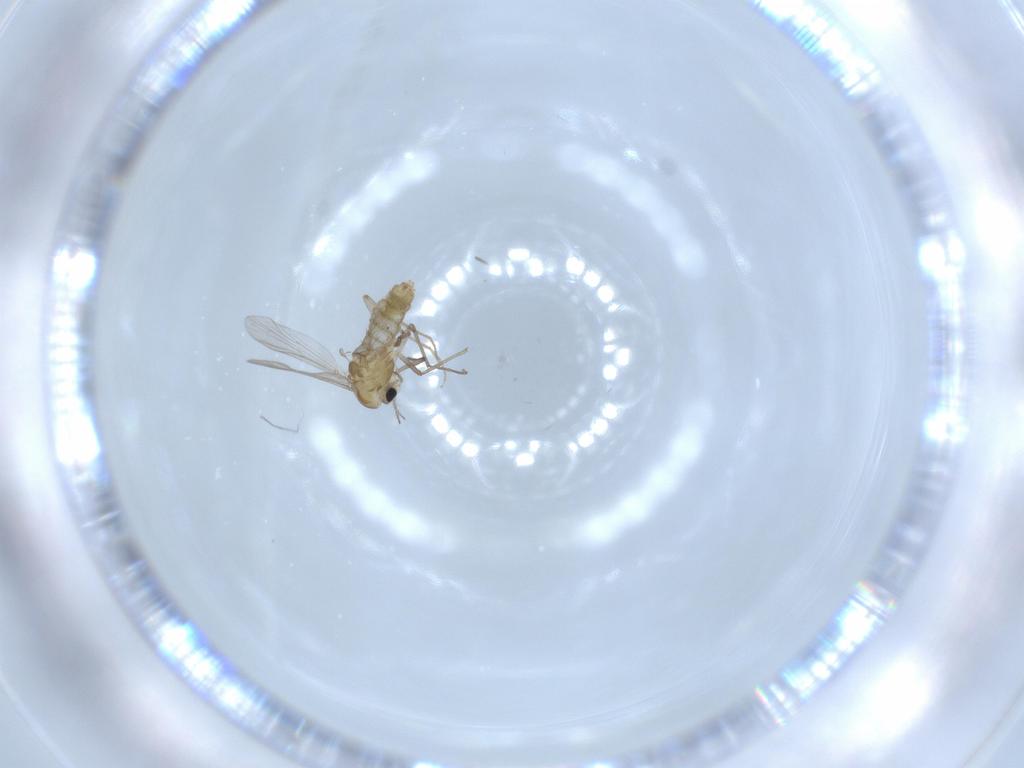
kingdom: Animalia
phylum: Arthropoda
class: Insecta
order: Diptera
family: Chironomidae
